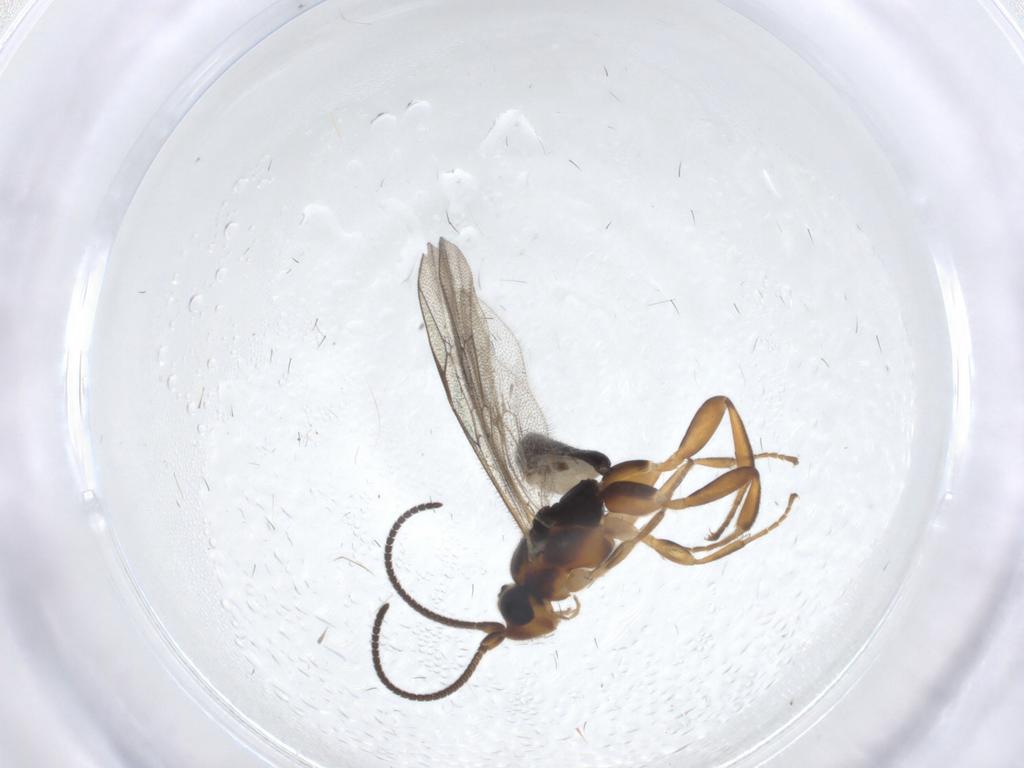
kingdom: Animalia
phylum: Arthropoda
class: Insecta
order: Hymenoptera
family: Ichneumonidae
